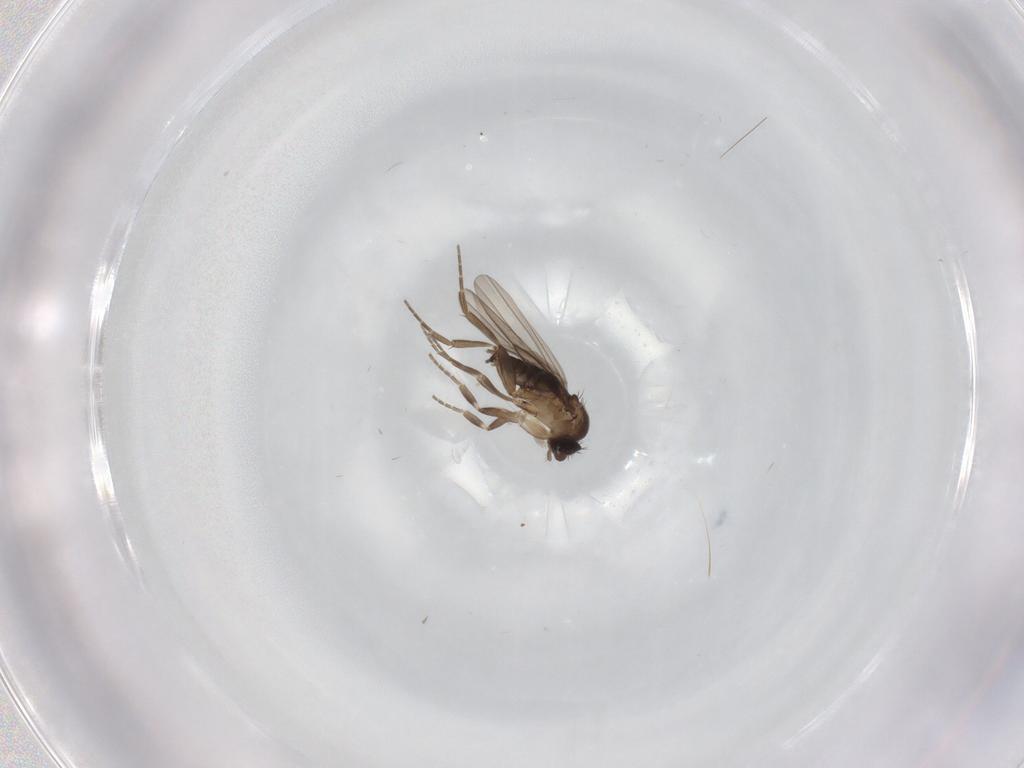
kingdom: Animalia
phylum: Arthropoda
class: Insecta
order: Diptera
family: Phoridae
